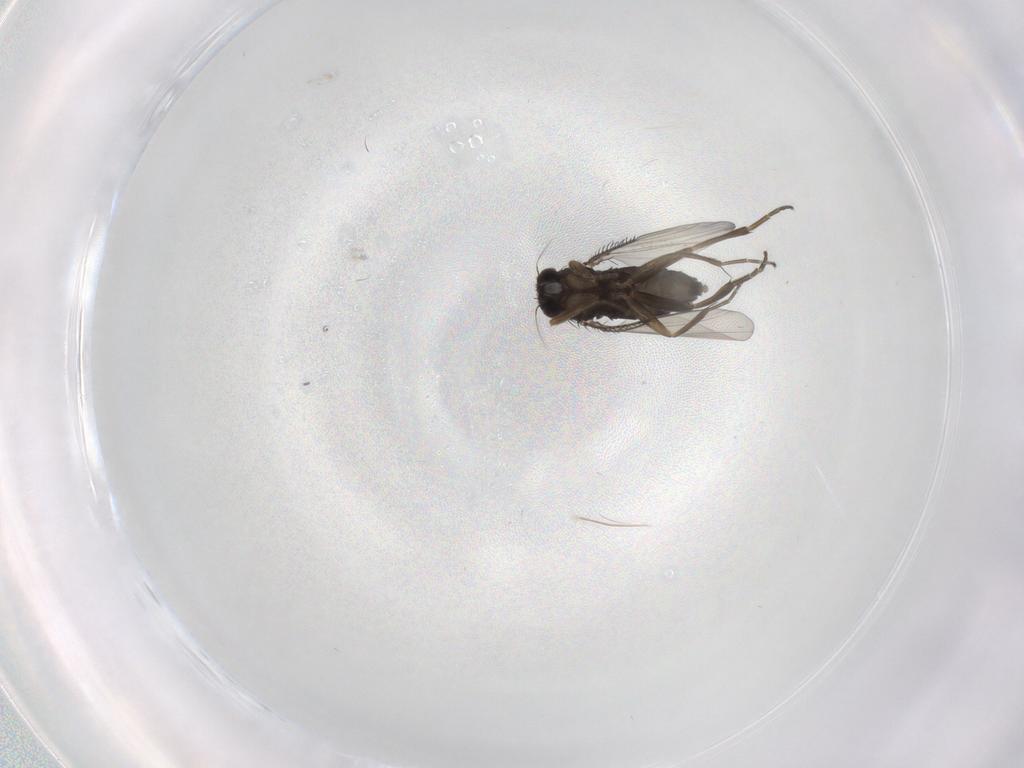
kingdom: Animalia
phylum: Arthropoda
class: Insecta
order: Diptera
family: Phoridae
